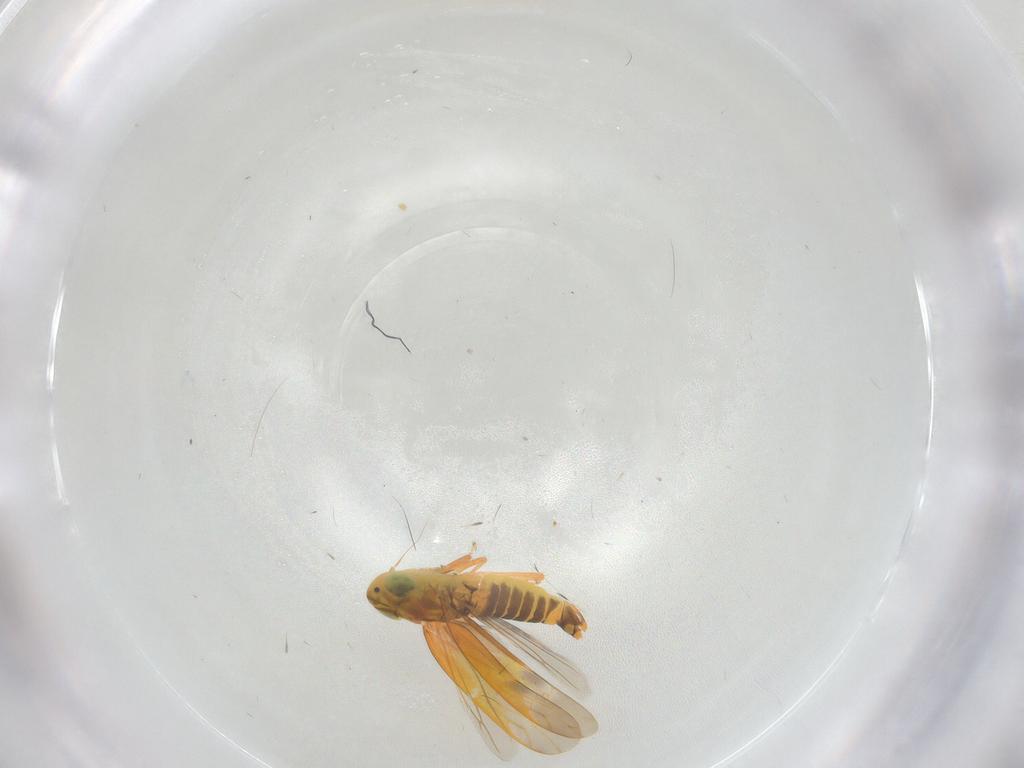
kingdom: Animalia
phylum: Arthropoda
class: Insecta
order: Hemiptera
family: Cicadellidae
